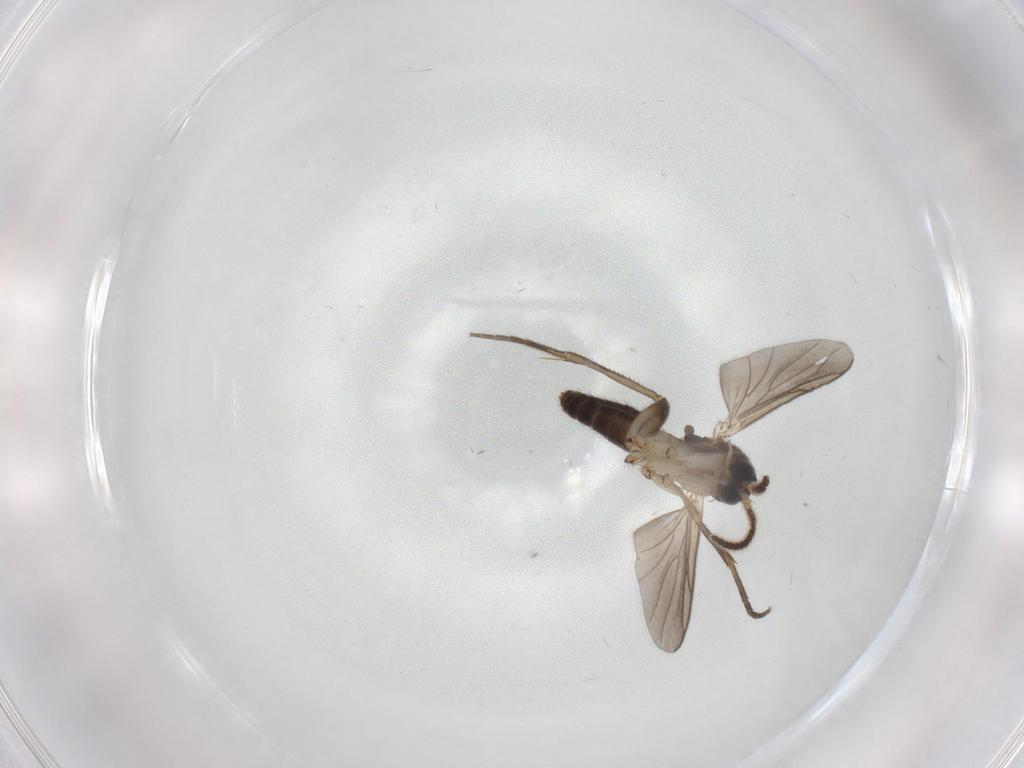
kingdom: Animalia
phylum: Arthropoda
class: Insecta
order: Diptera
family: Mycetophilidae
